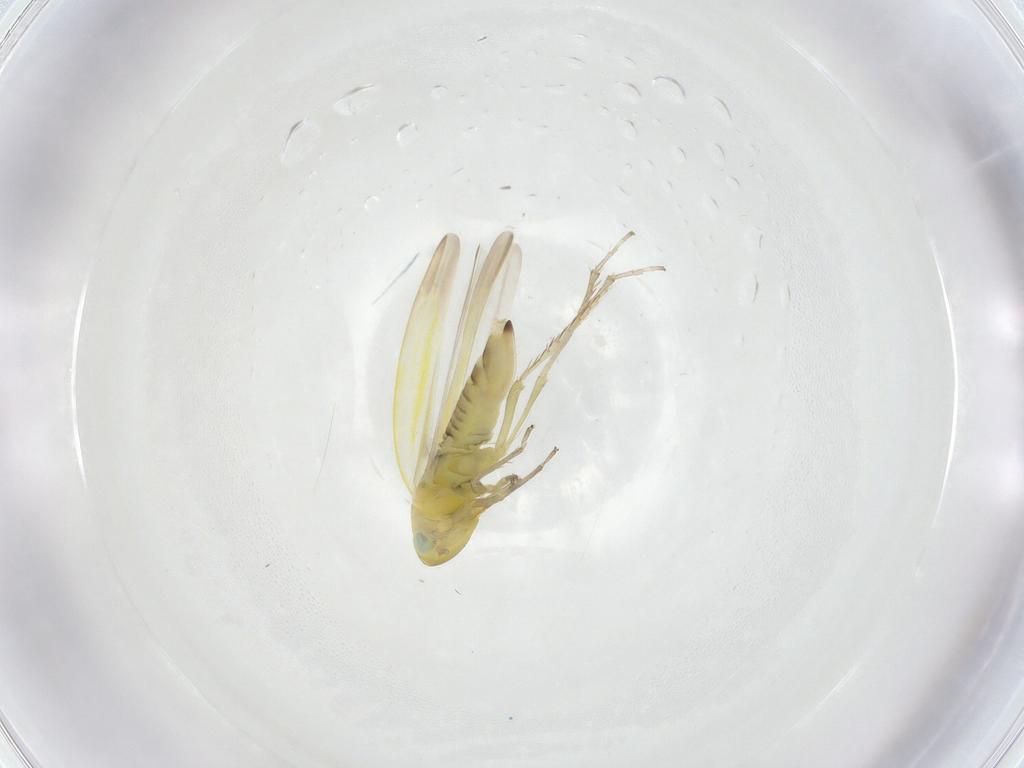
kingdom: Animalia
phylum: Arthropoda
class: Insecta
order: Hemiptera
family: Cicadellidae
